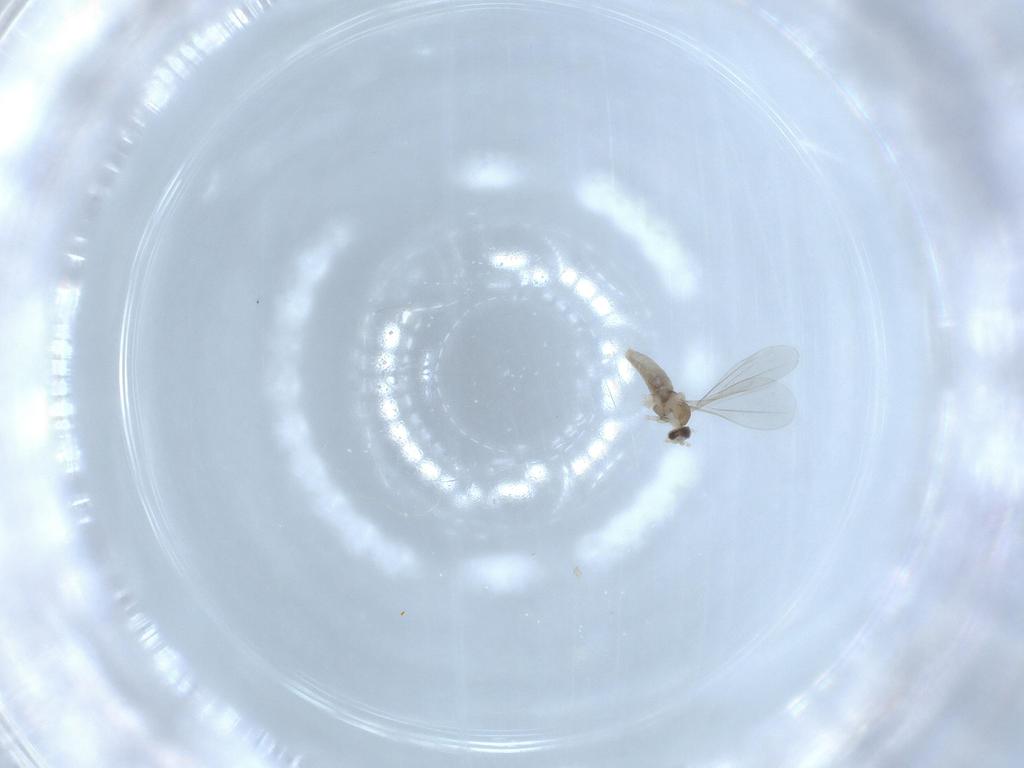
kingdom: Animalia
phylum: Arthropoda
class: Insecta
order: Diptera
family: Cecidomyiidae
